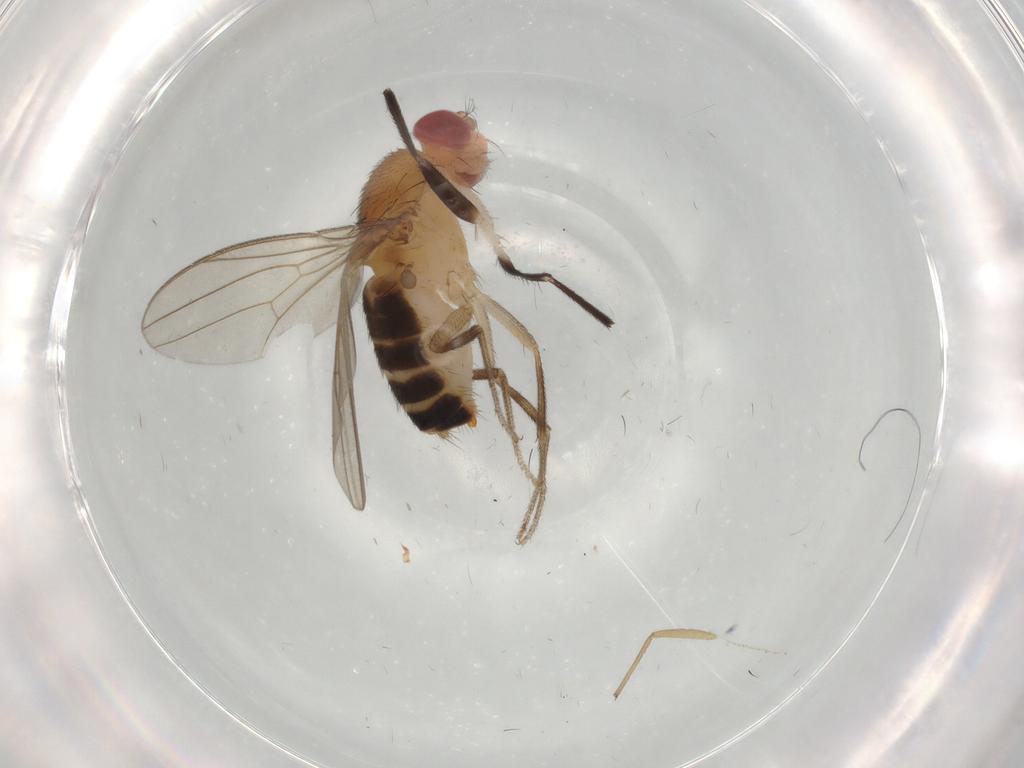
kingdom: Animalia
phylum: Arthropoda
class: Insecta
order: Diptera
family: Drosophilidae
